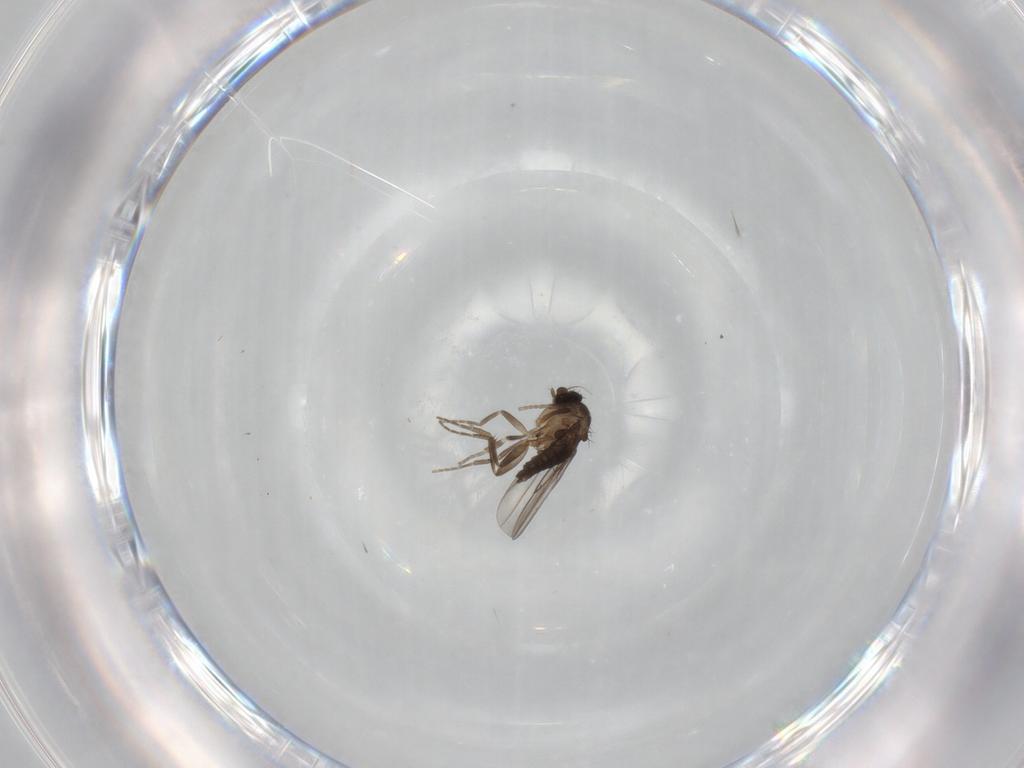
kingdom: Animalia
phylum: Arthropoda
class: Insecta
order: Diptera
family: Phoridae
